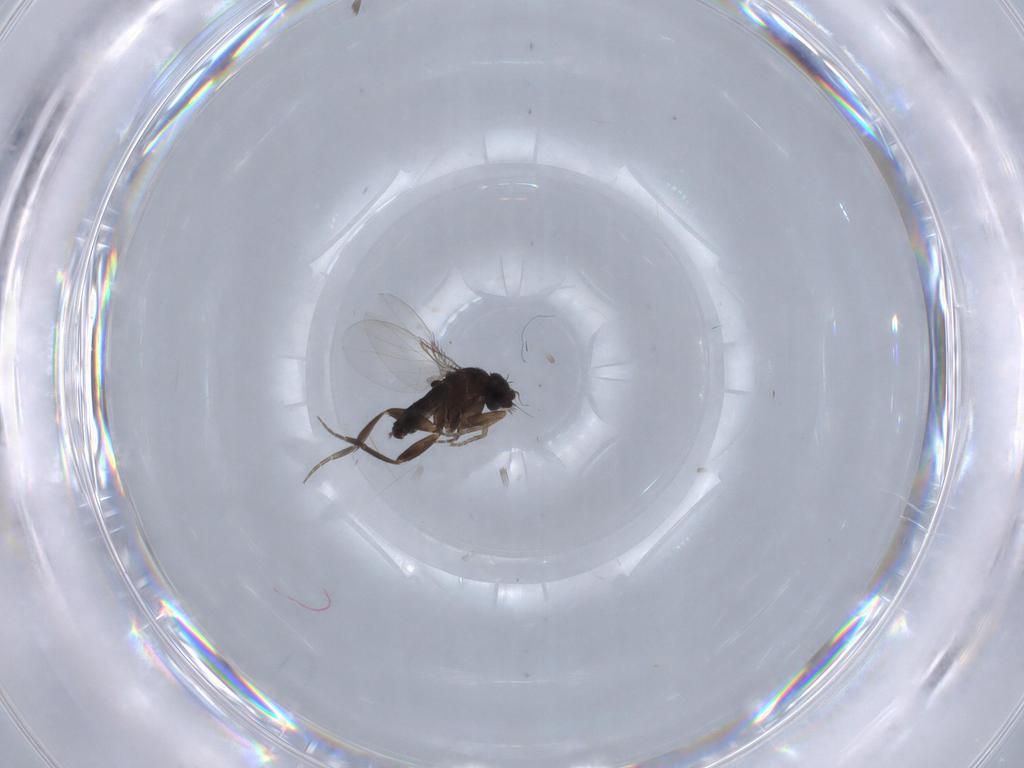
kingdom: Animalia
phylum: Arthropoda
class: Insecta
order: Diptera
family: Phoridae
